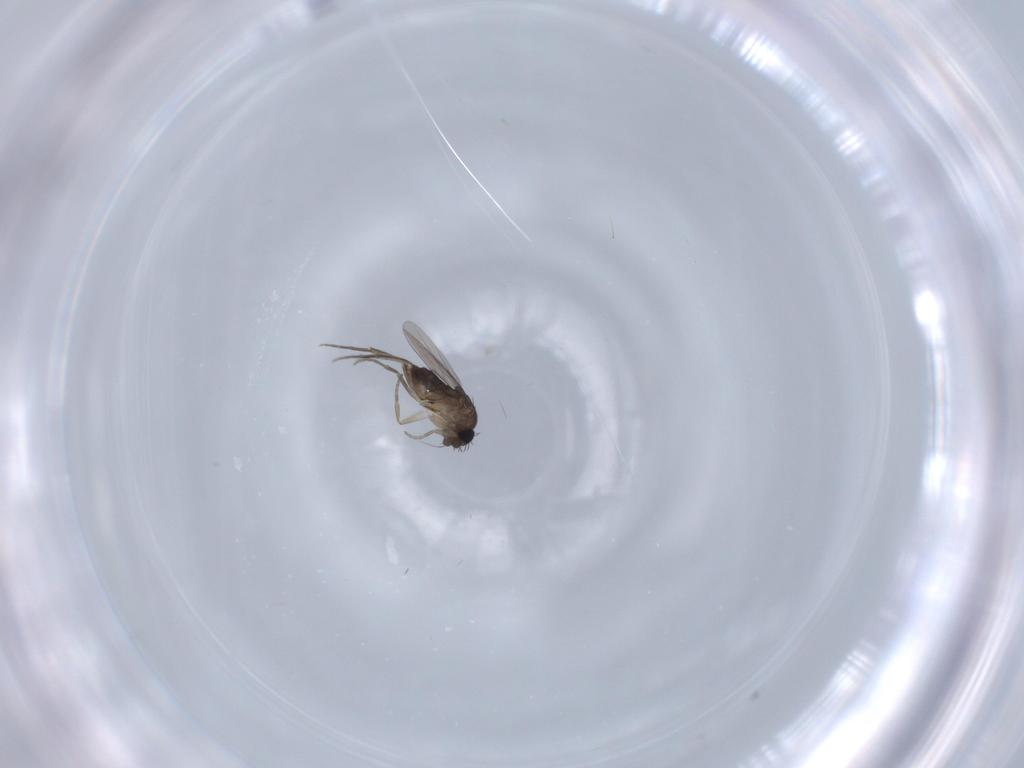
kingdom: Animalia
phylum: Arthropoda
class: Insecta
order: Diptera
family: Phoridae
